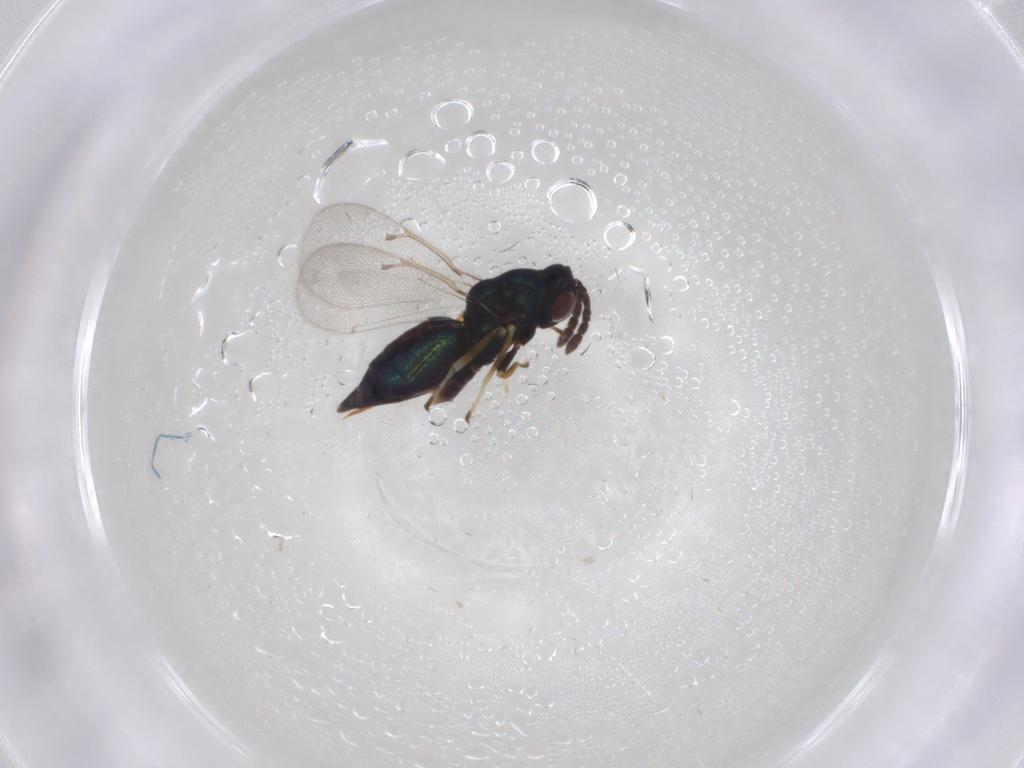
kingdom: Animalia
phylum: Arthropoda
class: Insecta
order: Hymenoptera
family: Eulophidae
